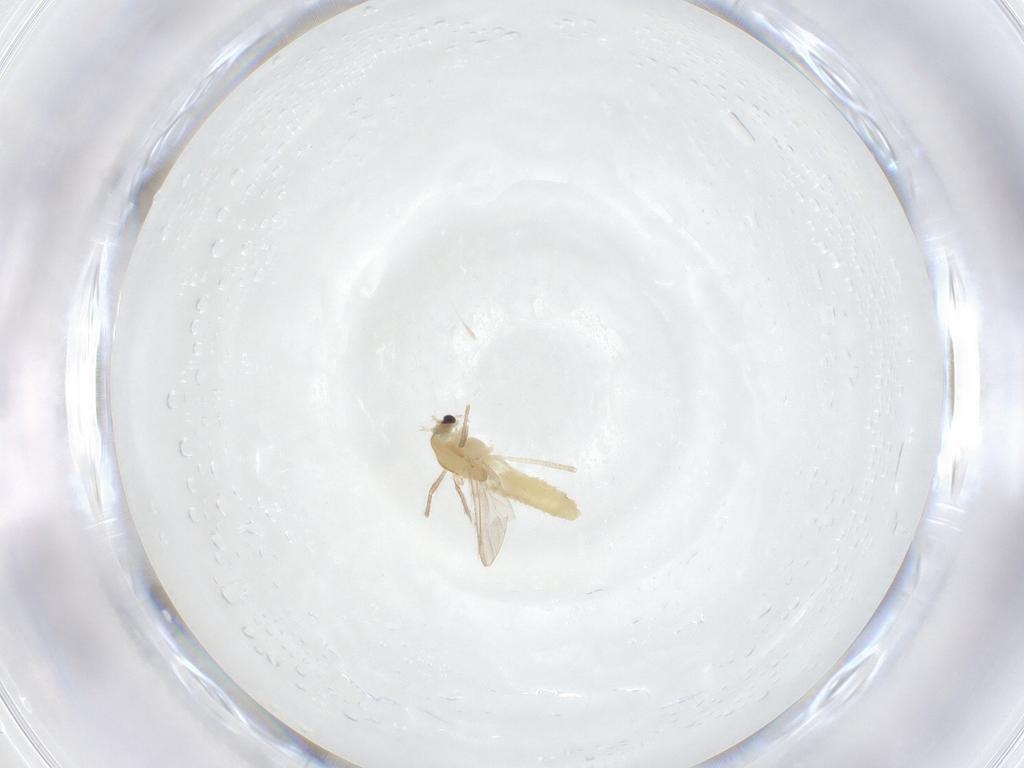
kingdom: Animalia
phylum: Arthropoda
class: Insecta
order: Diptera
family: Chironomidae
